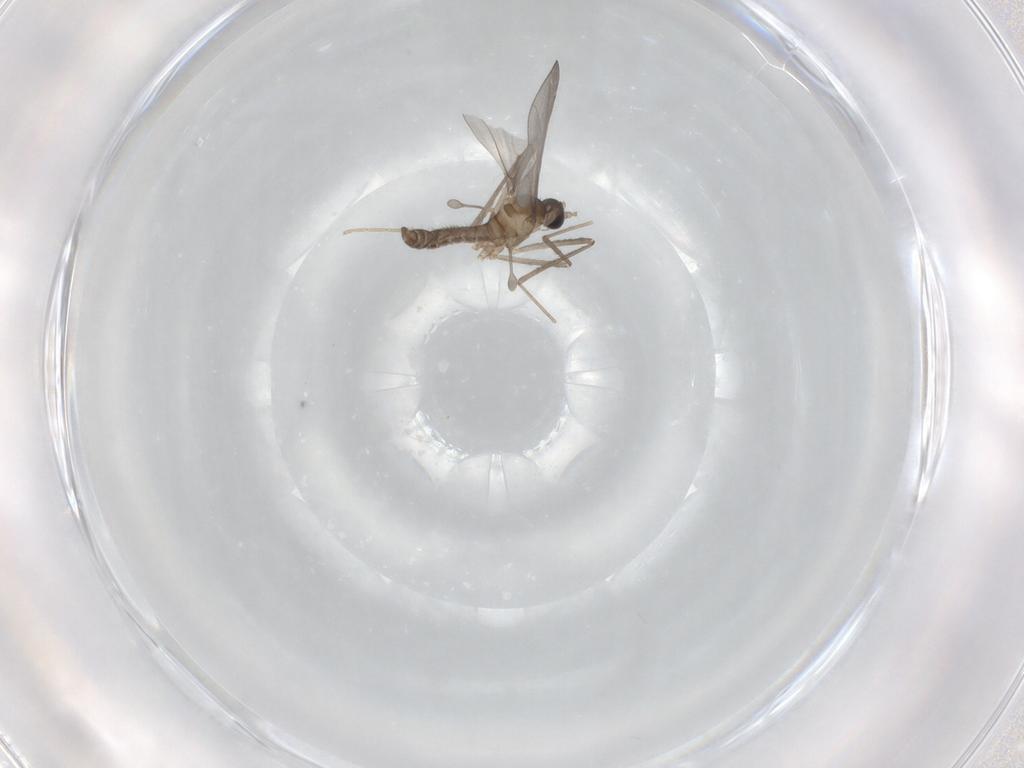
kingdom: Animalia
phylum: Arthropoda
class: Insecta
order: Diptera
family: Cecidomyiidae
